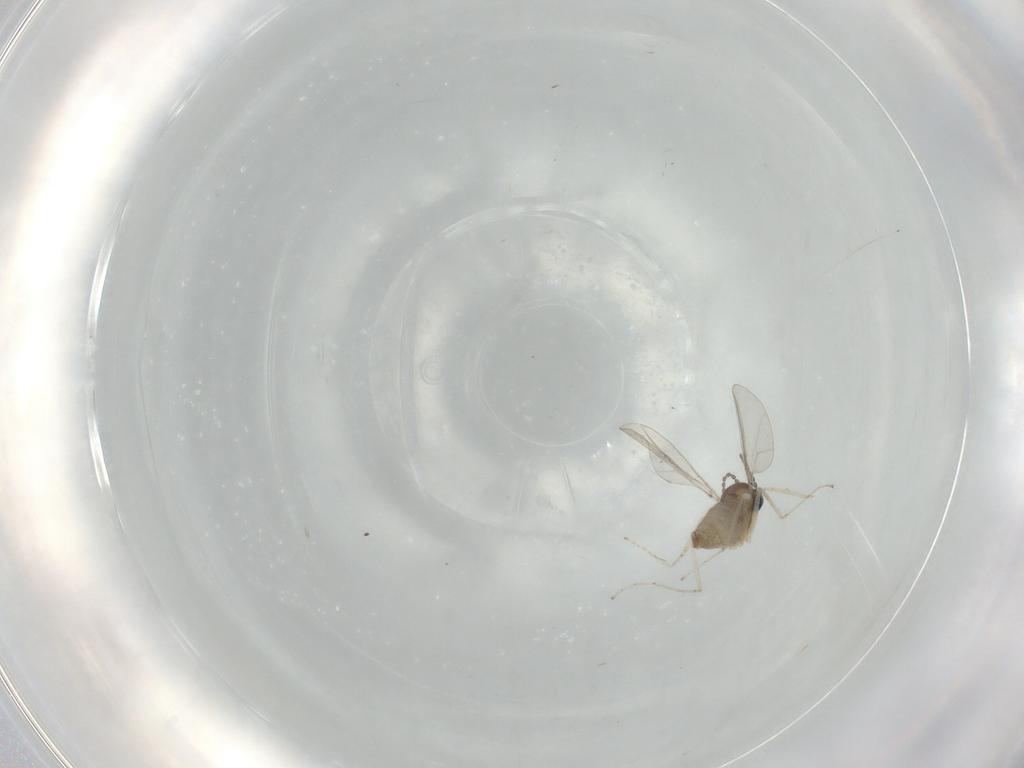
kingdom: Animalia
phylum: Arthropoda
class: Insecta
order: Diptera
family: Cecidomyiidae
